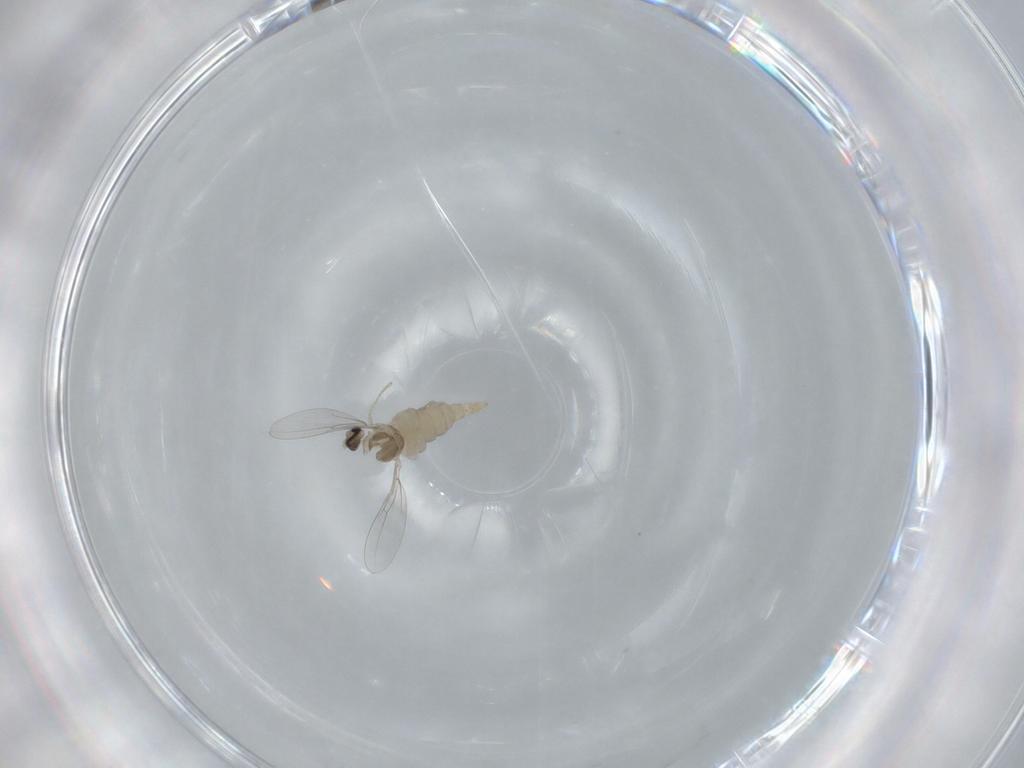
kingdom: Animalia
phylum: Arthropoda
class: Insecta
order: Diptera
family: Cecidomyiidae
